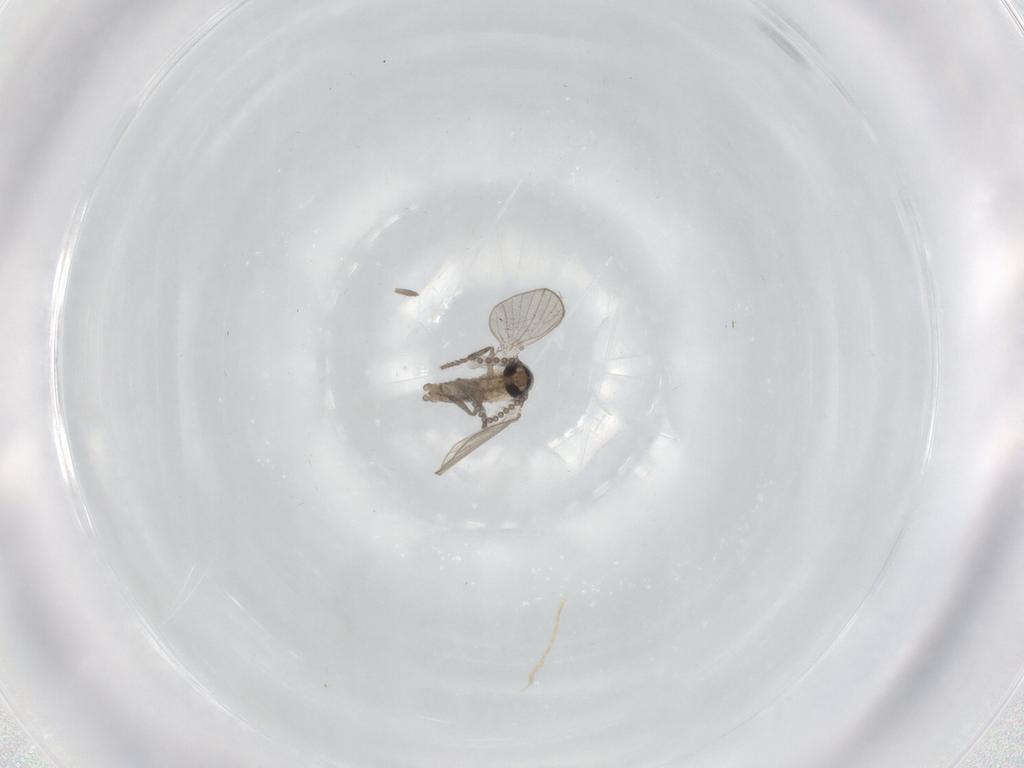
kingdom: Animalia
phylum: Arthropoda
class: Insecta
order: Diptera
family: Psychodidae
